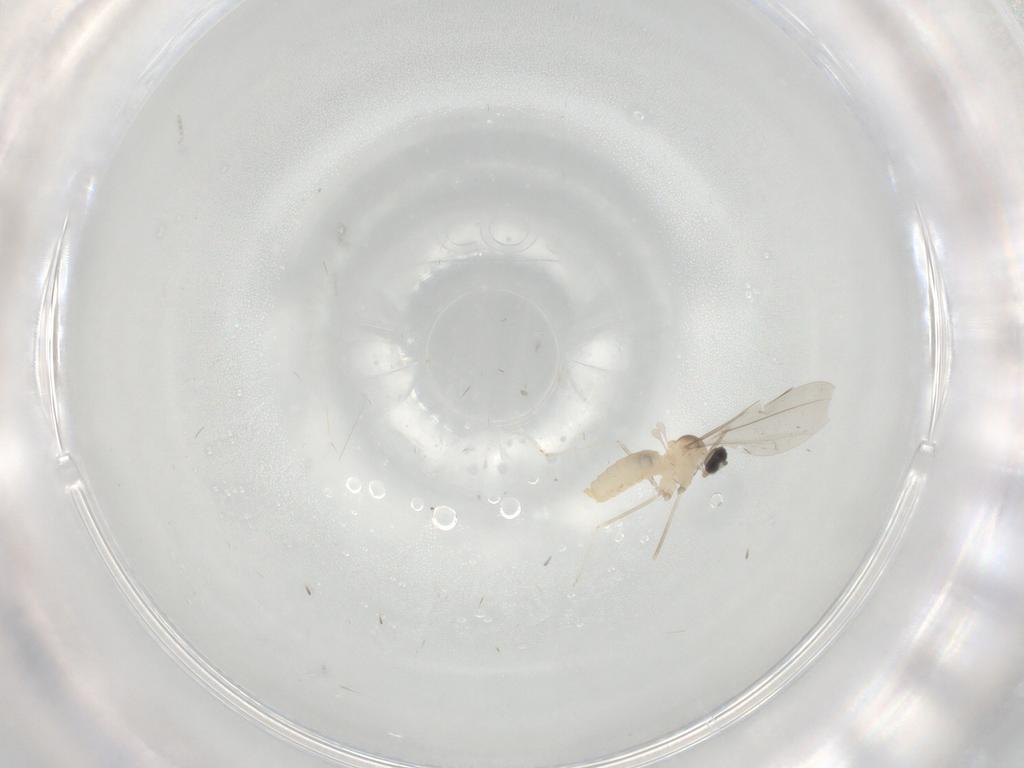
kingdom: Animalia
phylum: Arthropoda
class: Insecta
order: Diptera
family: Cecidomyiidae
